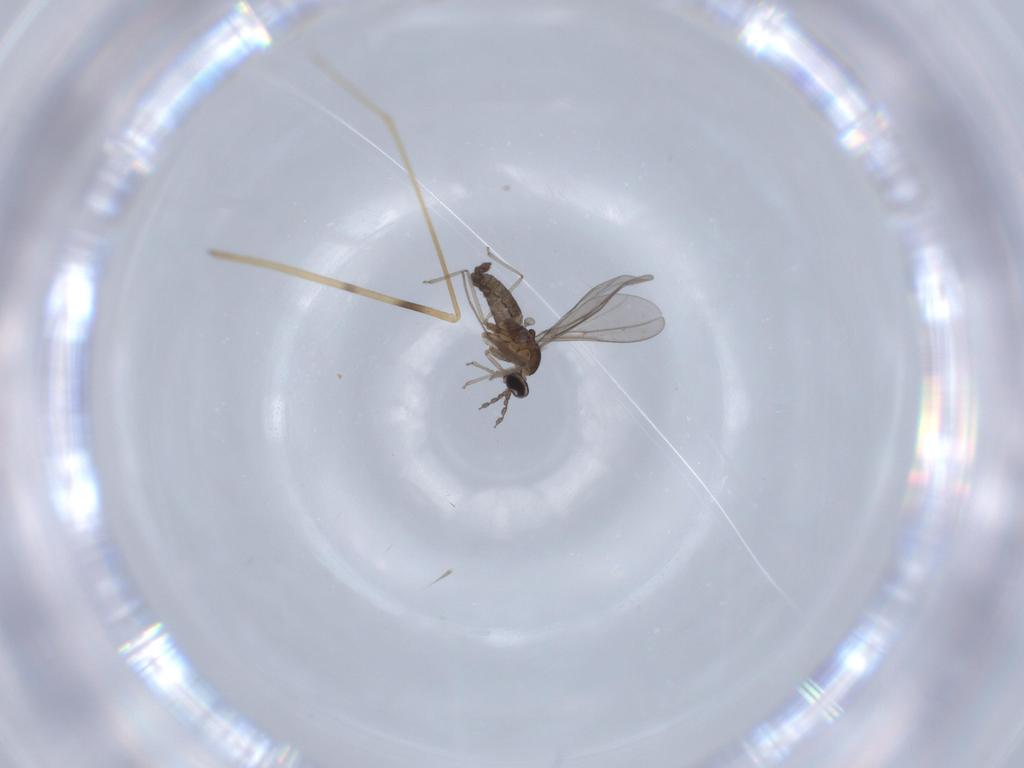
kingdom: Animalia
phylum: Arthropoda
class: Insecta
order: Diptera
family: Cecidomyiidae
